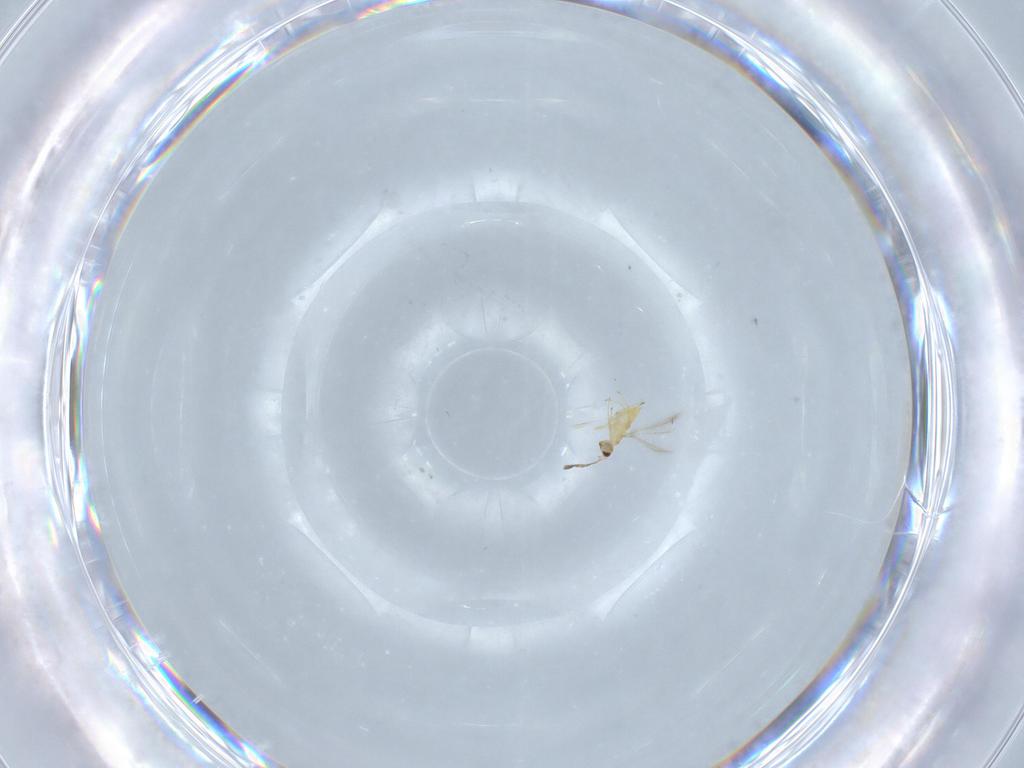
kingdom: Animalia
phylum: Arthropoda
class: Insecta
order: Hymenoptera
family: Mymaridae
